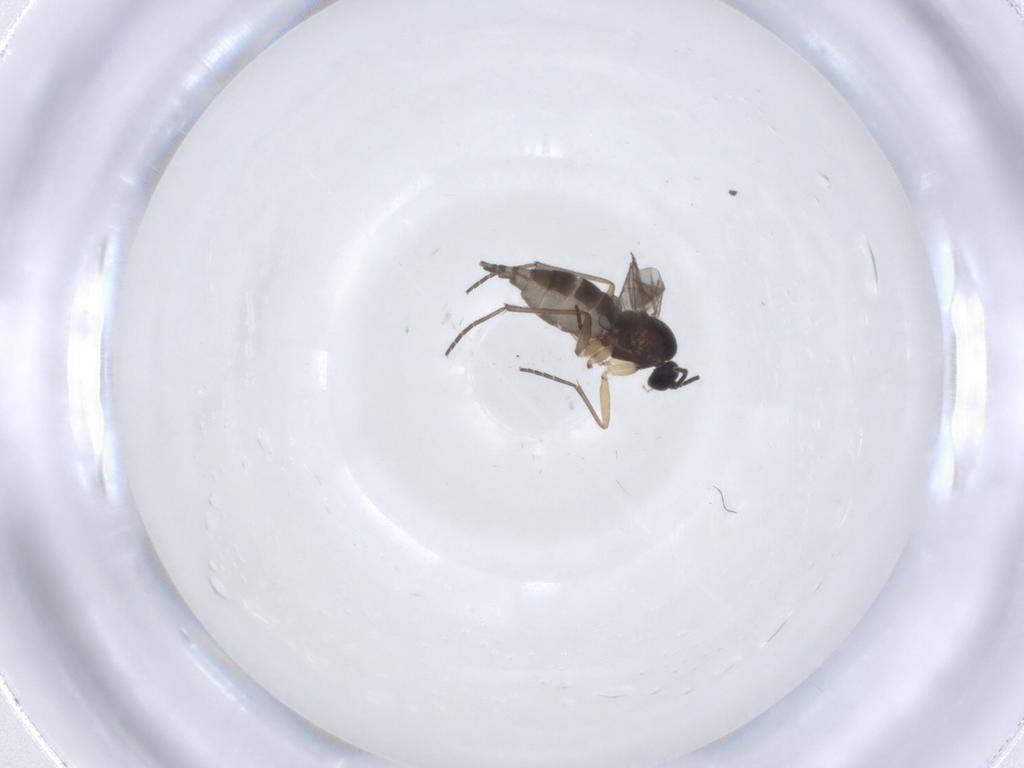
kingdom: Animalia
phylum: Arthropoda
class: Insecta
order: Diptera
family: Sciaridae
